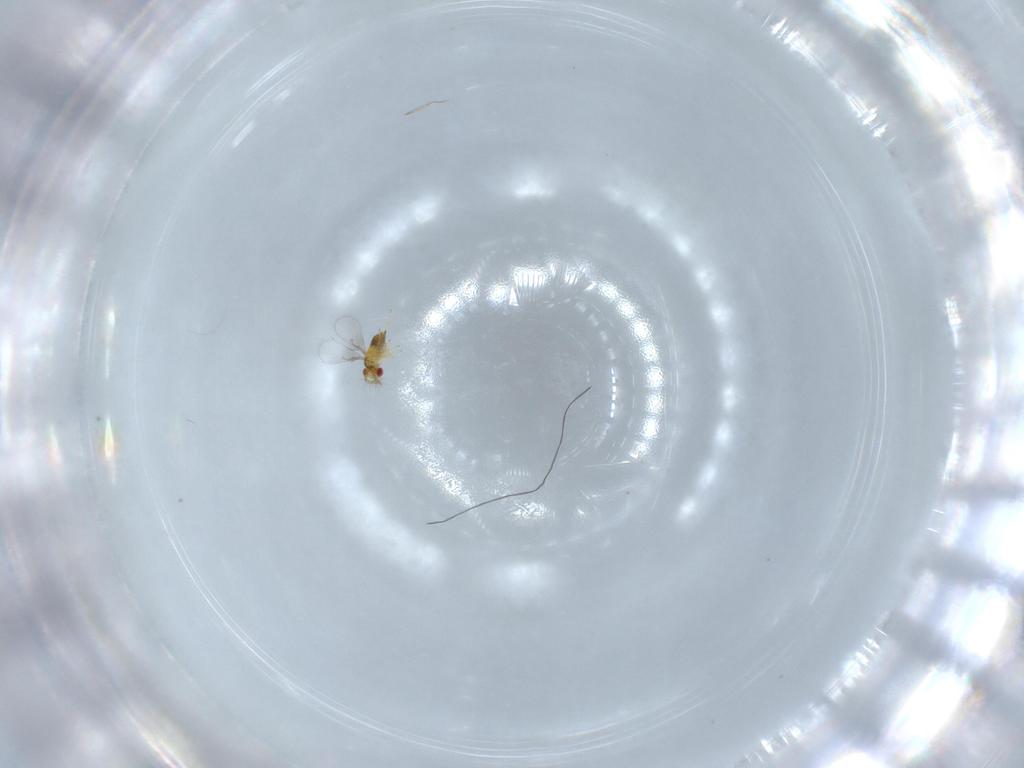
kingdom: Animalia
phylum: Arthropoda
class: Insecta
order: Hymenoptera
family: Trichogrammatidae
